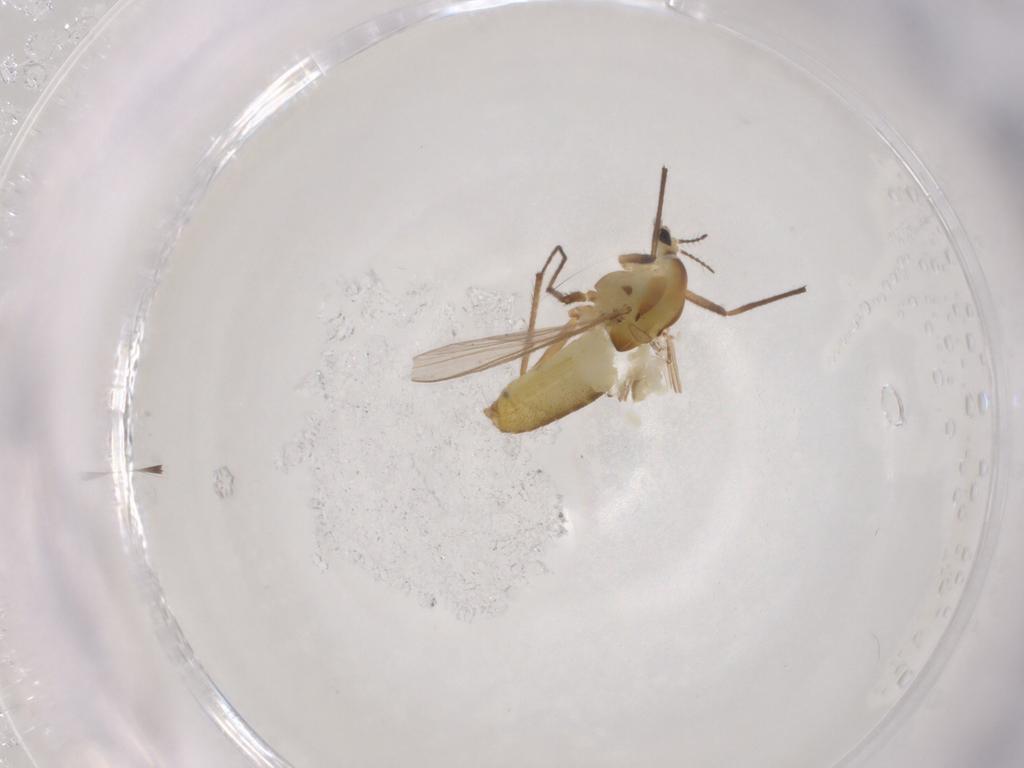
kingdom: Animalia
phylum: Arthropoda
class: Insecta
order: Diptera
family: Chironomidae
